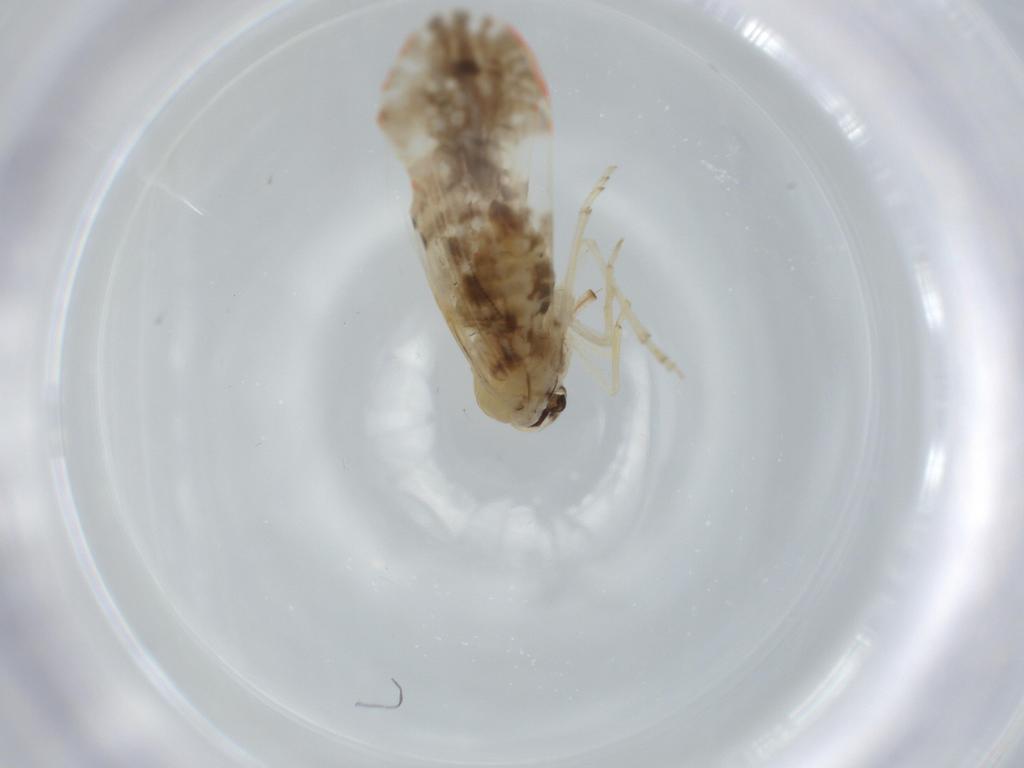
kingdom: Animalia
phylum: Arthropoda
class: Insecta
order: Hemiptera
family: Derbidae
